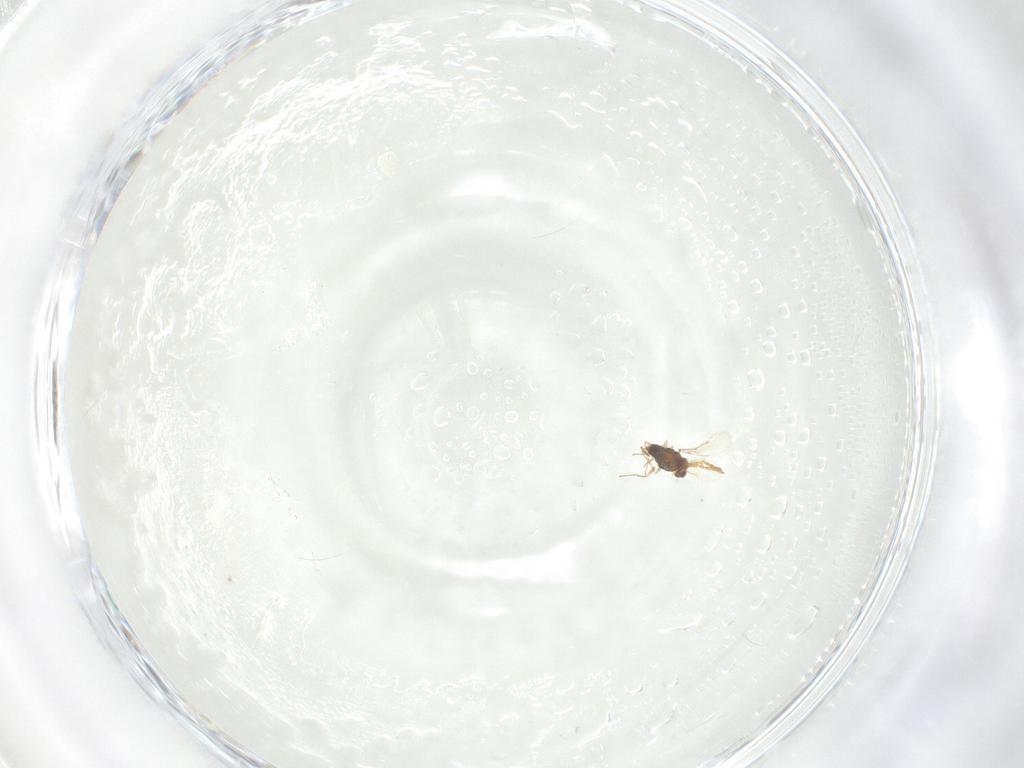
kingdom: Animalia
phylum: Arthropoda
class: Insecta
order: Hymenoptera
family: Aphelinidae
